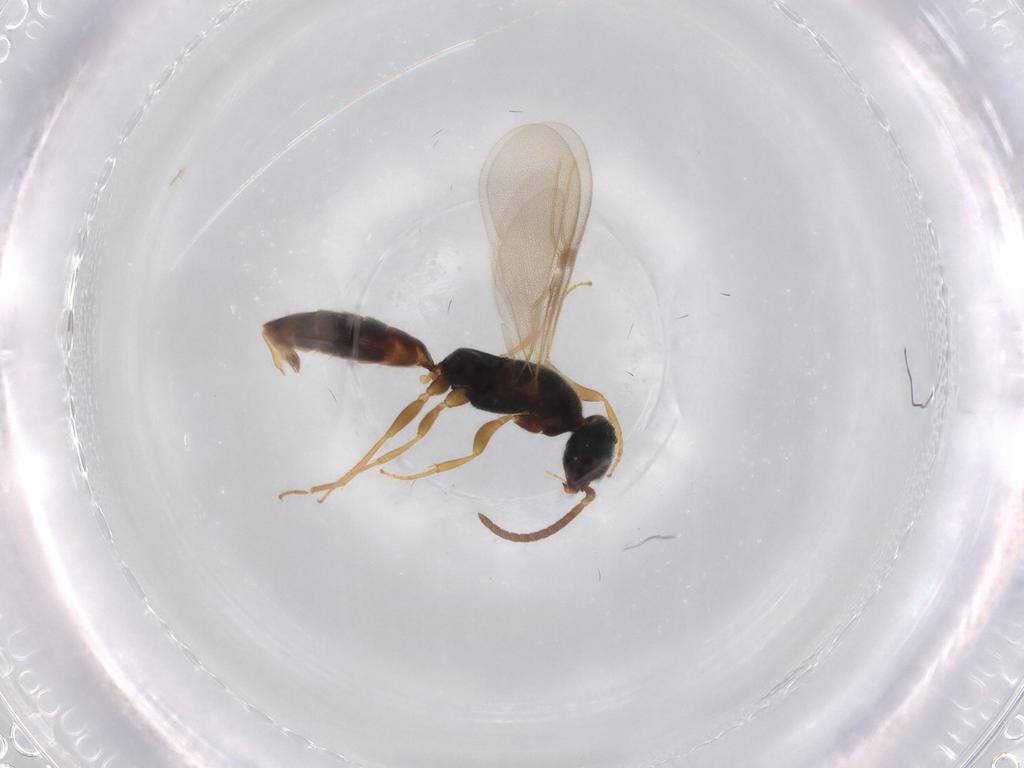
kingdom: Animalia
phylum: Arthropoda
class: Insecta
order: Hymenoptera
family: Bethylidae
